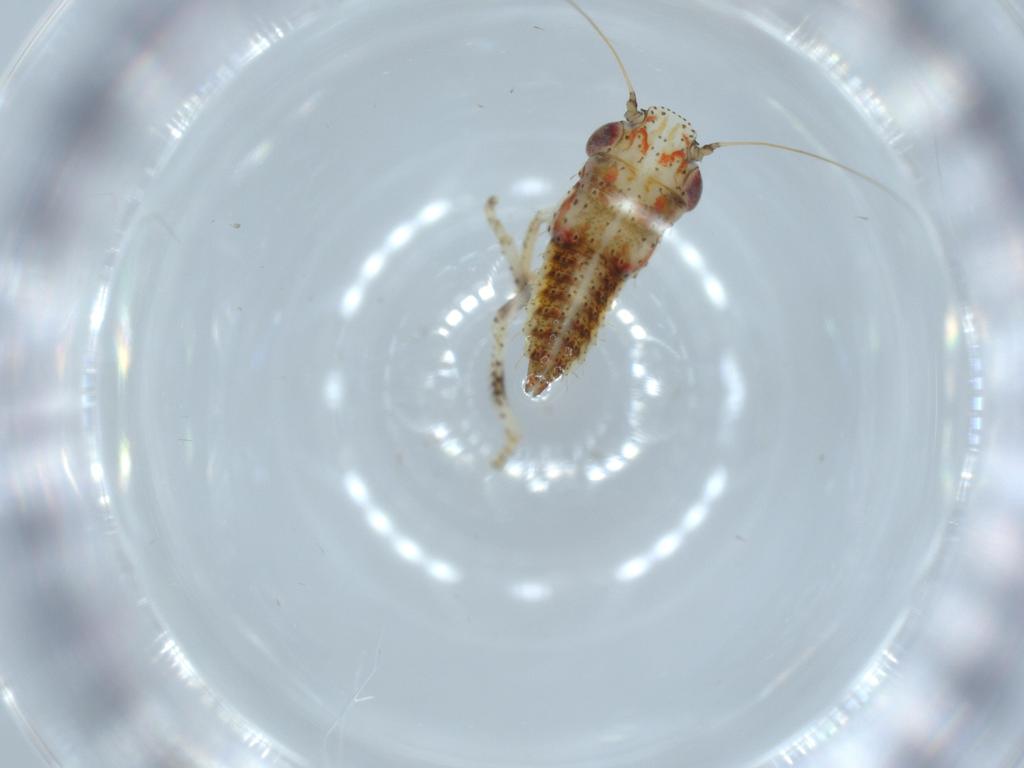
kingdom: Animalia
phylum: Arthropoda
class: Insecta
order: Hemiptera
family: Cicadellidae
